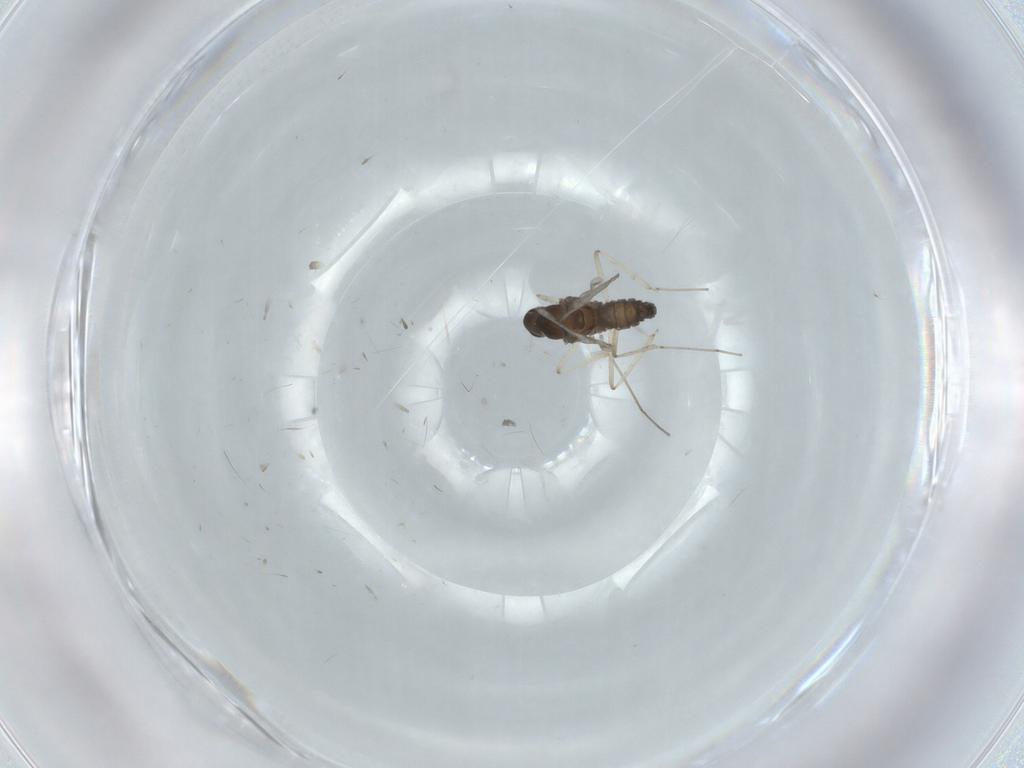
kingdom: Animalia
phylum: Arthropoda
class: Insecta
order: Diptera
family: Cecidomyiidae
